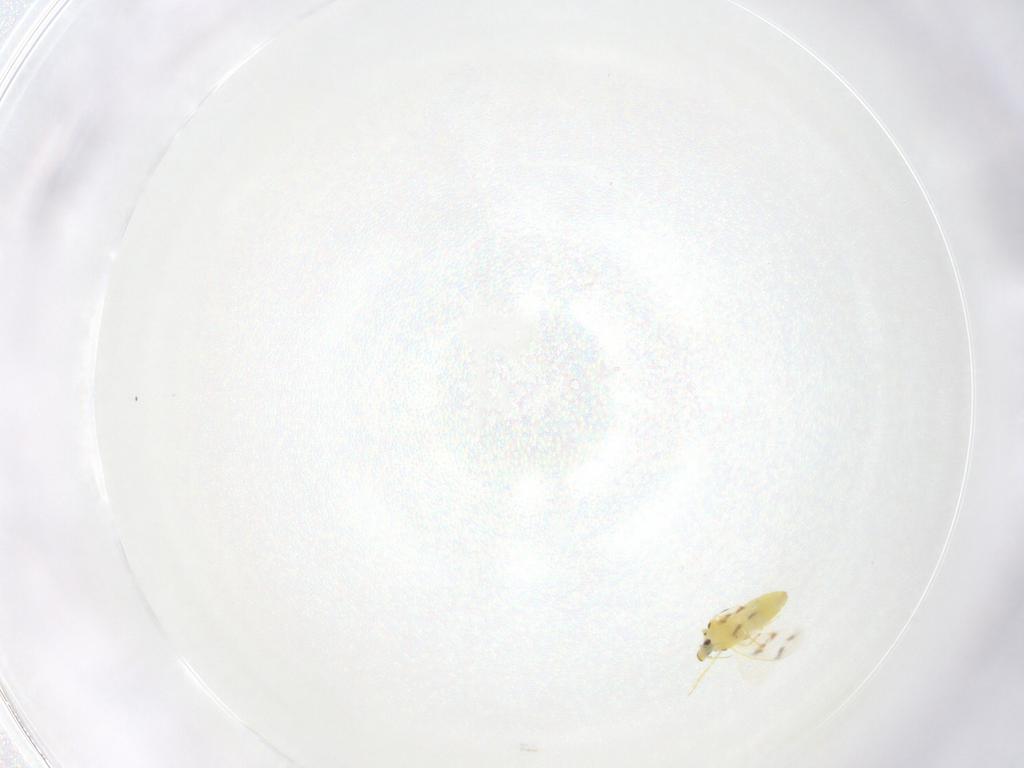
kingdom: Animalia
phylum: Arthropoda
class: Insecta
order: Hemiptera
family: Aleyrodidae
